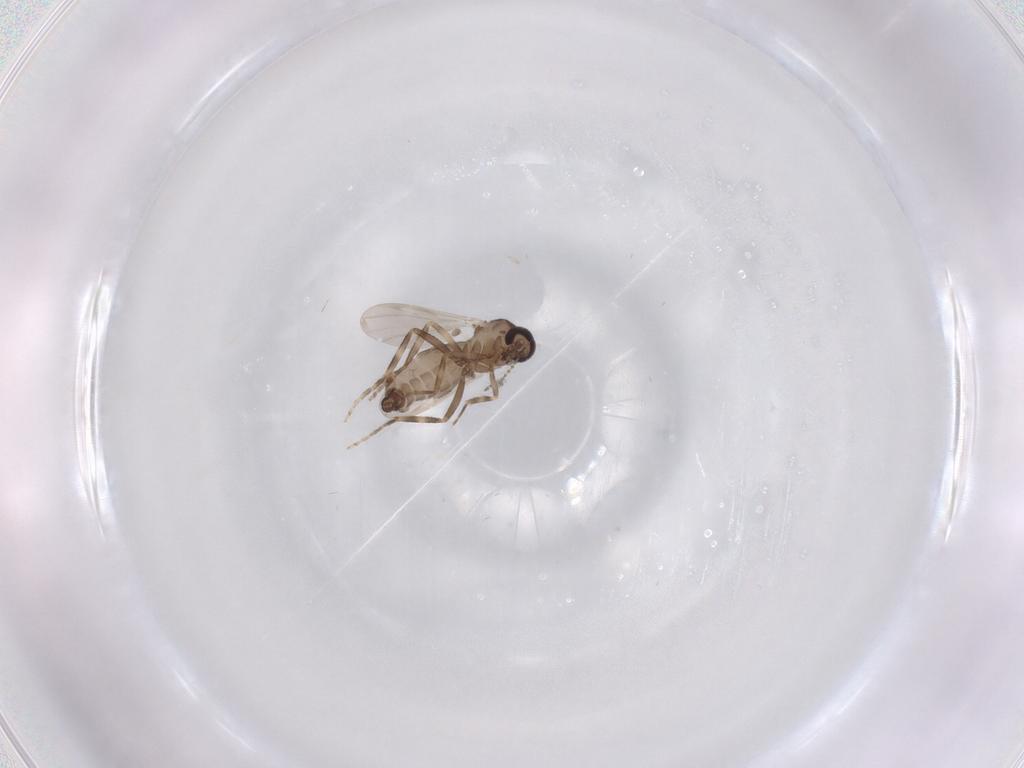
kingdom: Animalia
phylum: Arthropoda
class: Insecta
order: Diptera
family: Ceratopogonidae
